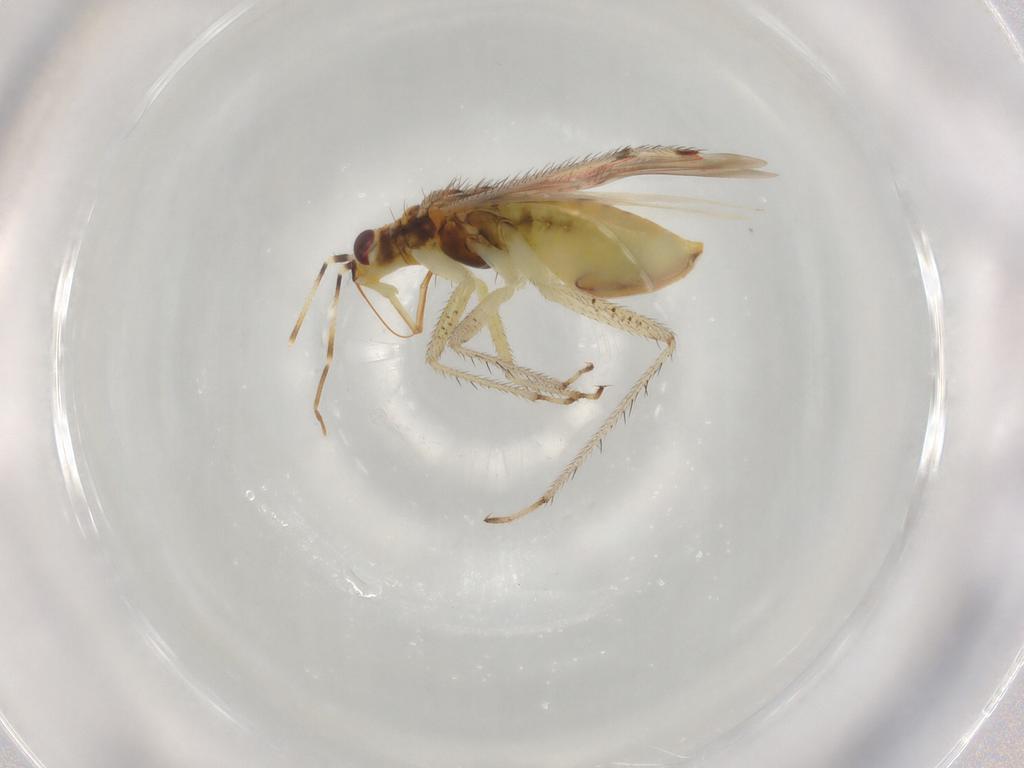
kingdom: Animalia
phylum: Arthropoda
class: Insecta
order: Hemiptera
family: Miridae
